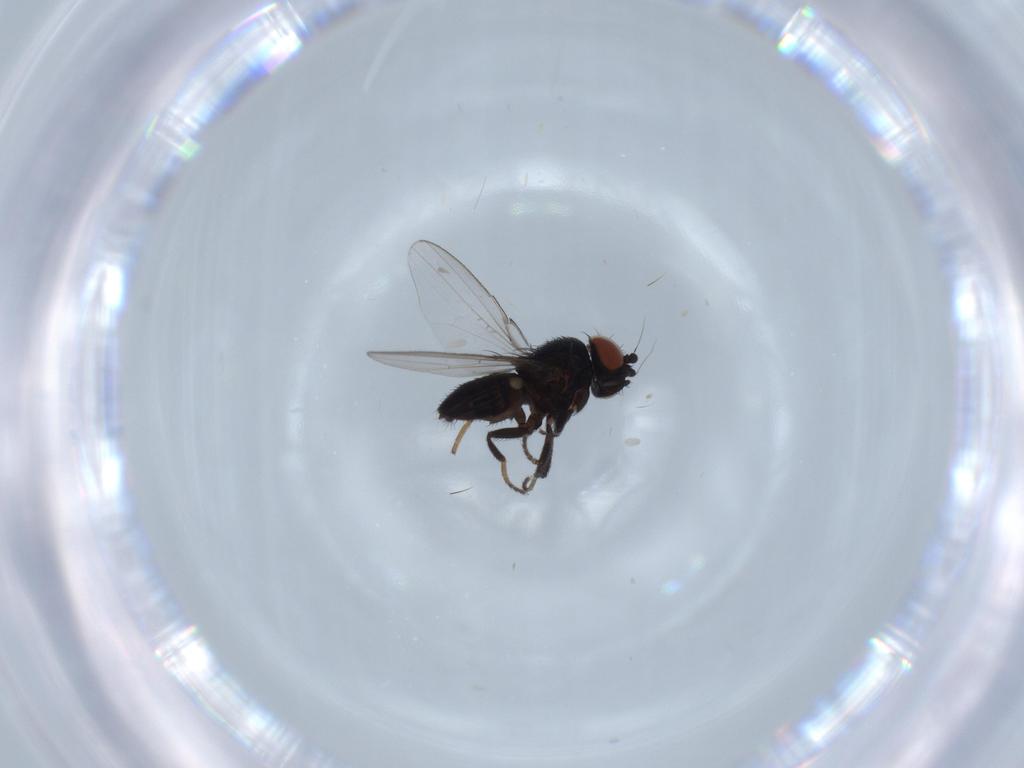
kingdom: Animalia
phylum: Arthropoda
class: Insecta
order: Diptera
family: Milichiidae
